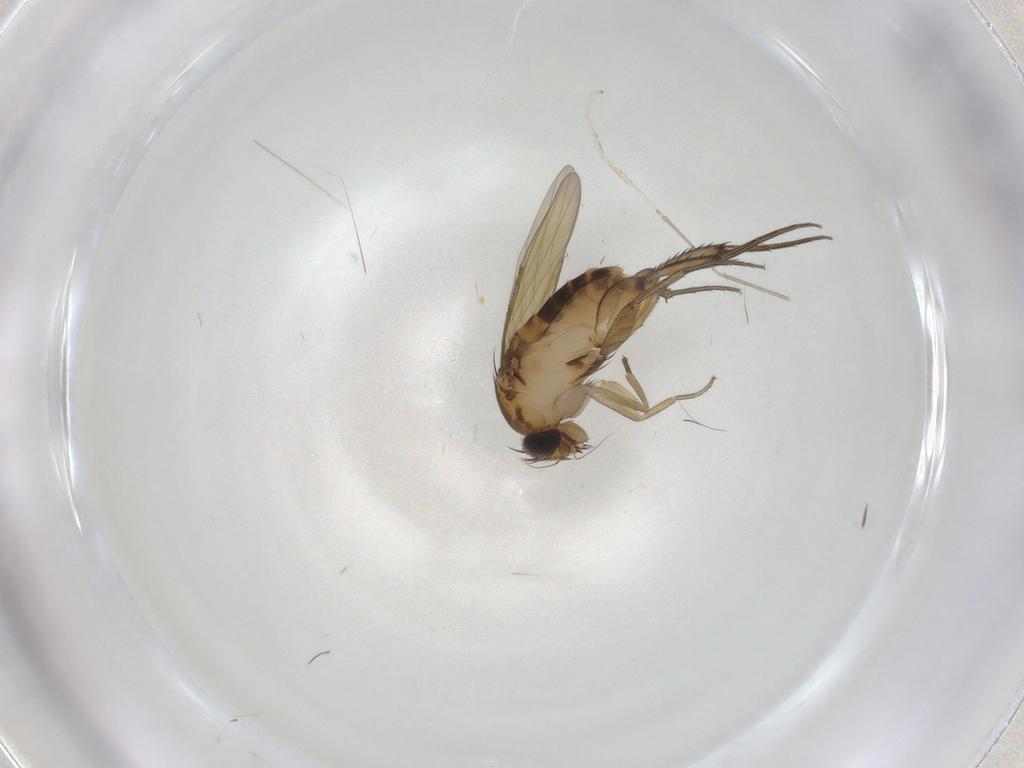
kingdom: Animalia
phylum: Arthropoda
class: Insecta
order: Diptera
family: Phoridae
